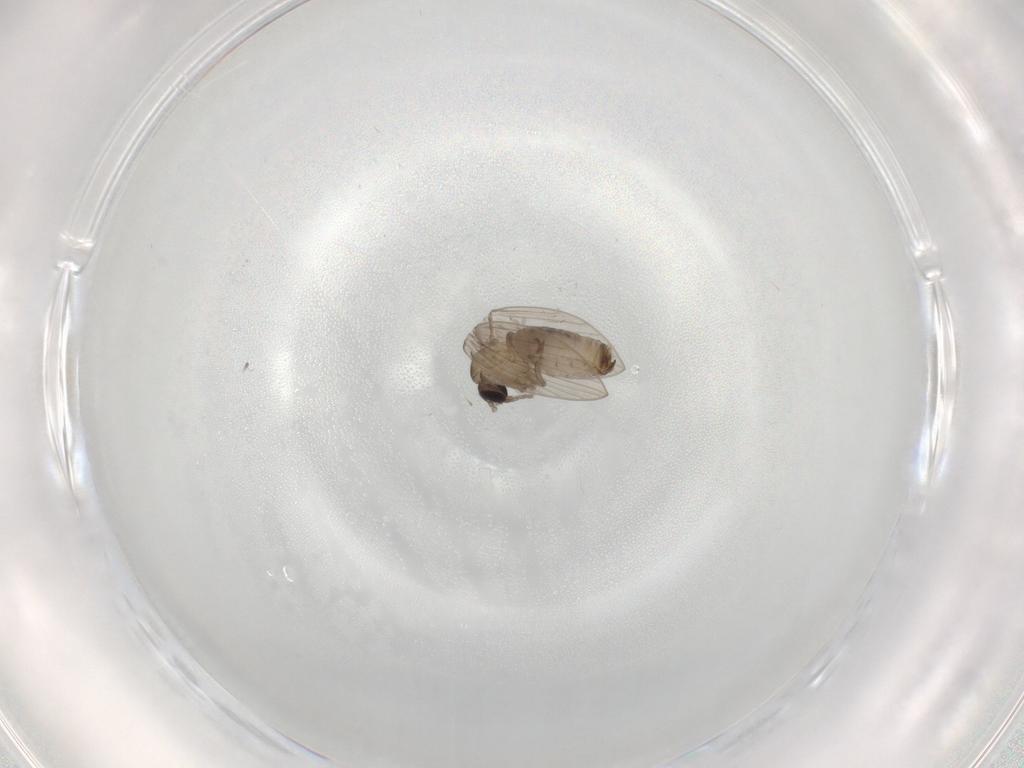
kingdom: Animalia
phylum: Arthropoda
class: Insecta
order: Diptera
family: Psychodidae
